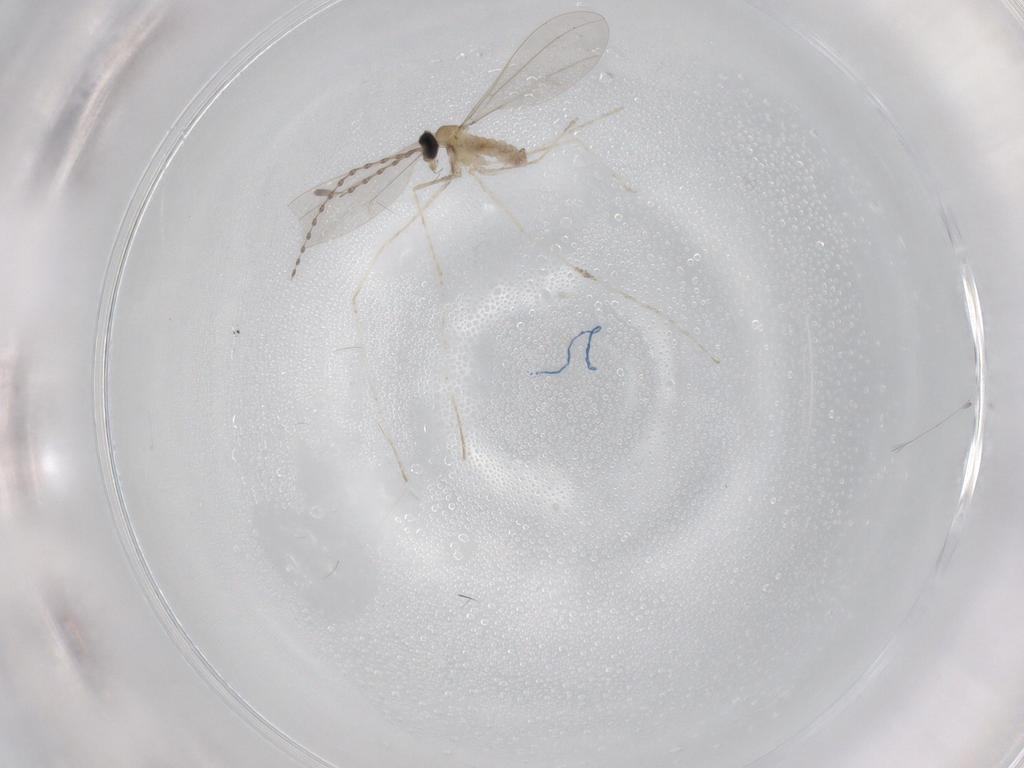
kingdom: Animalia
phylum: Arthropoda
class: Insecta
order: Diptera
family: Cecidomyiidae
